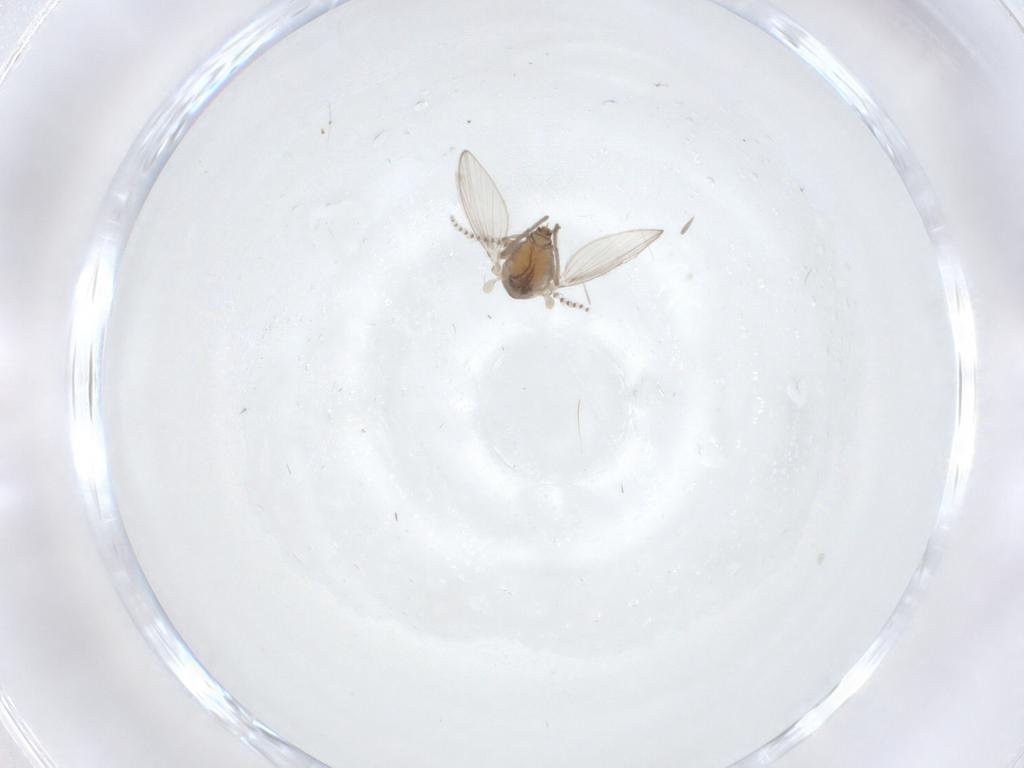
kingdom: Animalia
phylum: Arthropoda
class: Insecta
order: Diptera
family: Psychodidae
